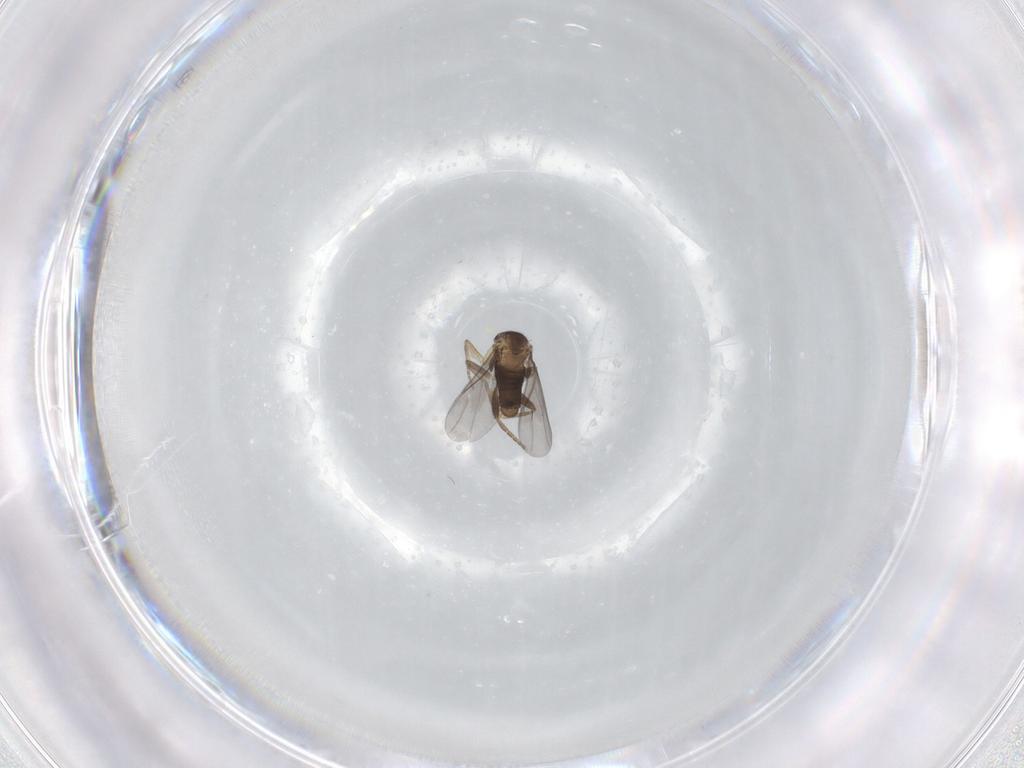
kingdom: Animalia
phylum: Arthropoda
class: Insecta
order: Diptera
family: Phoridae
